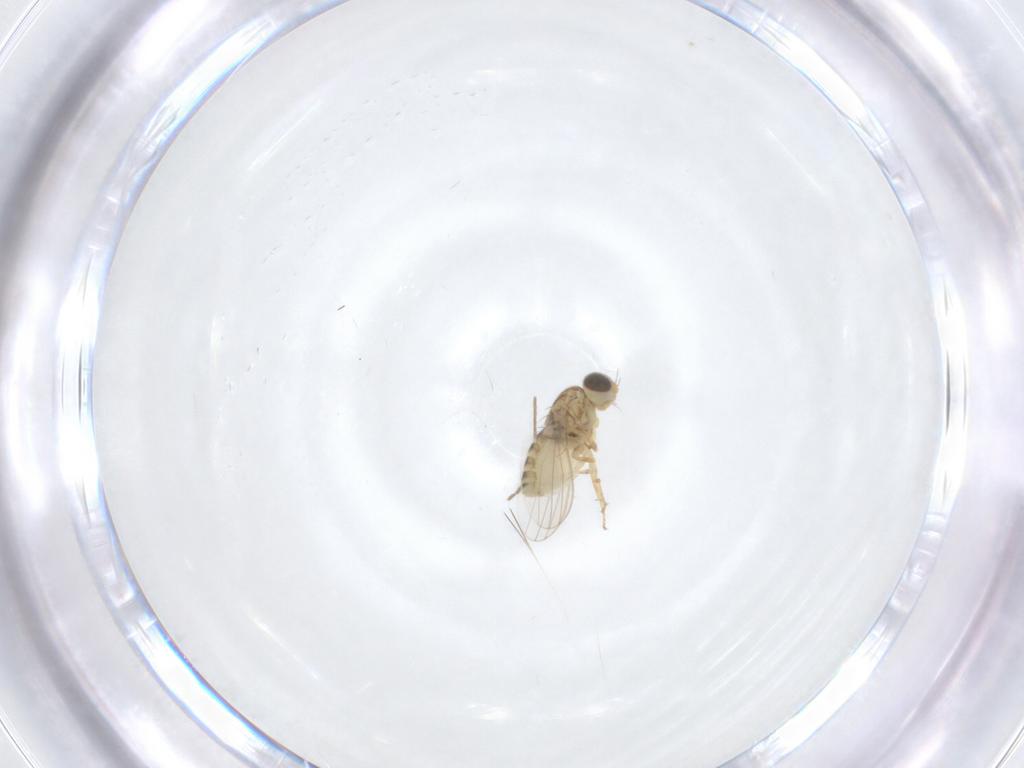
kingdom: Animalia
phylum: Arthropoda
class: Insecta
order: Diptera
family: Chyromyidae
